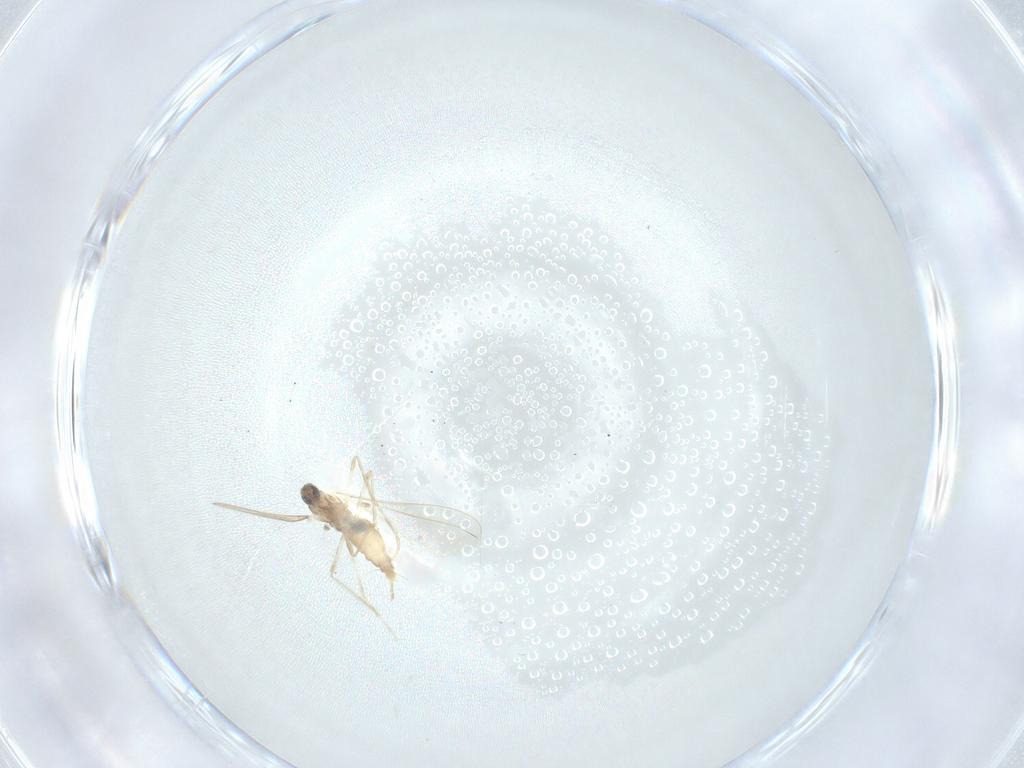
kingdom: Animalia
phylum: Arthropoda
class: Insecta
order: Diptera
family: Cecidomyiidae
